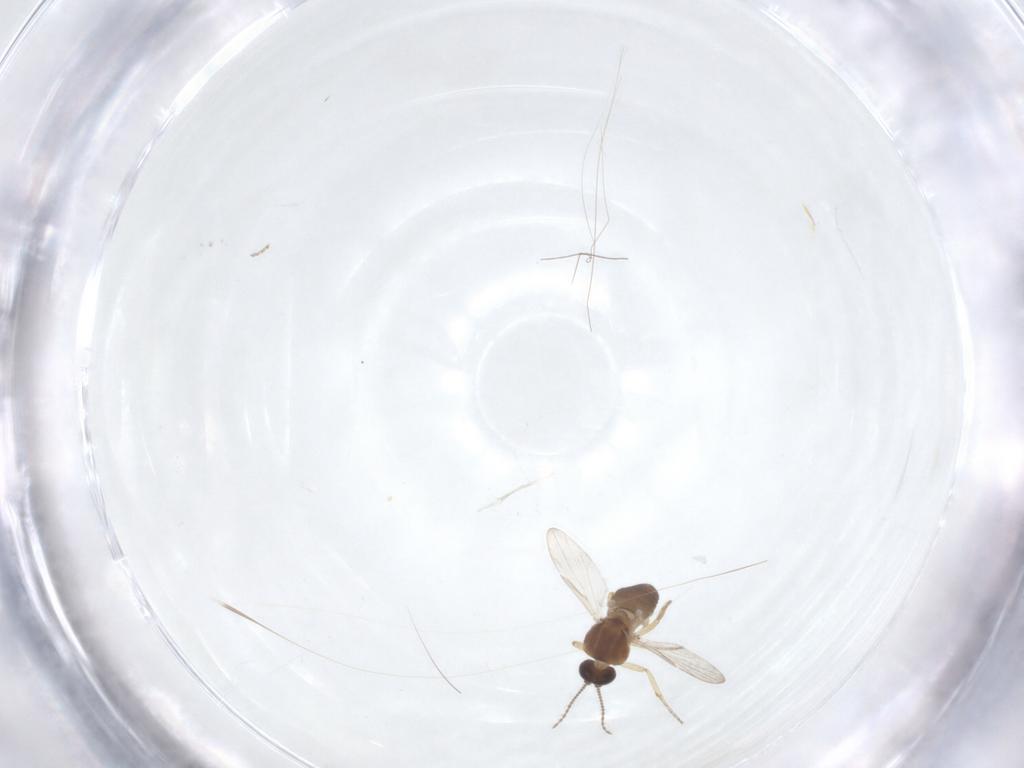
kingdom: Animalia
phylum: Arthropoda
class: Insecta
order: Diptera
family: Ceratopogonidae
